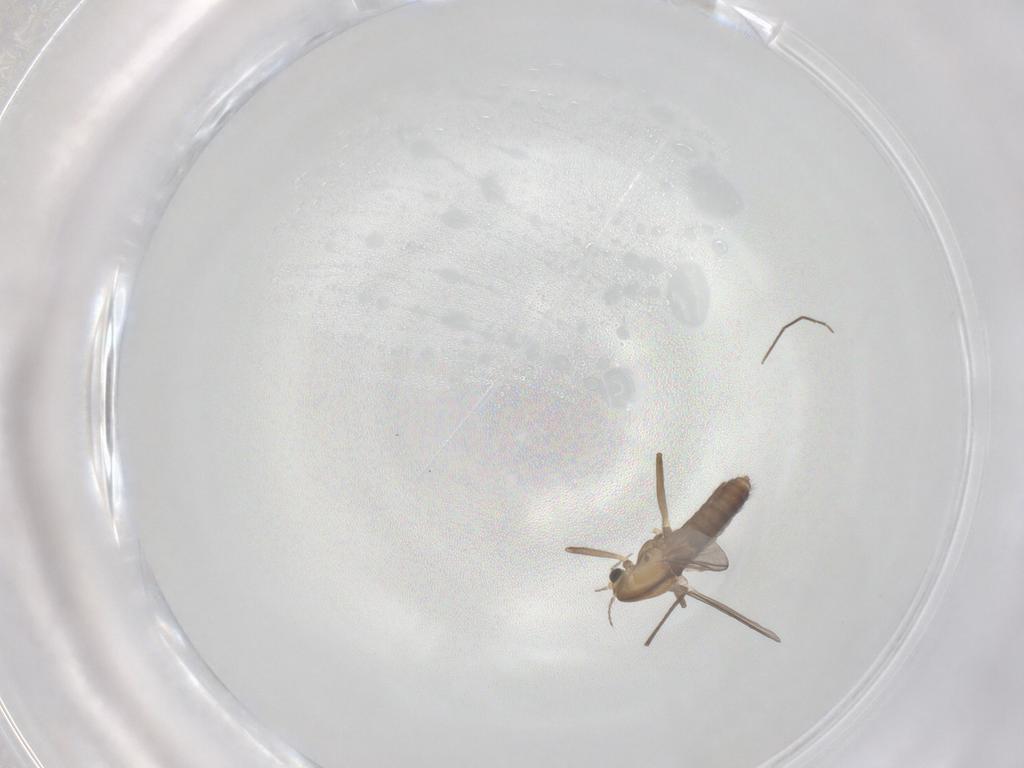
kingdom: Animalia
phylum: Arthropoda
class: Insecta
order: Diptera
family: Chironomidae
